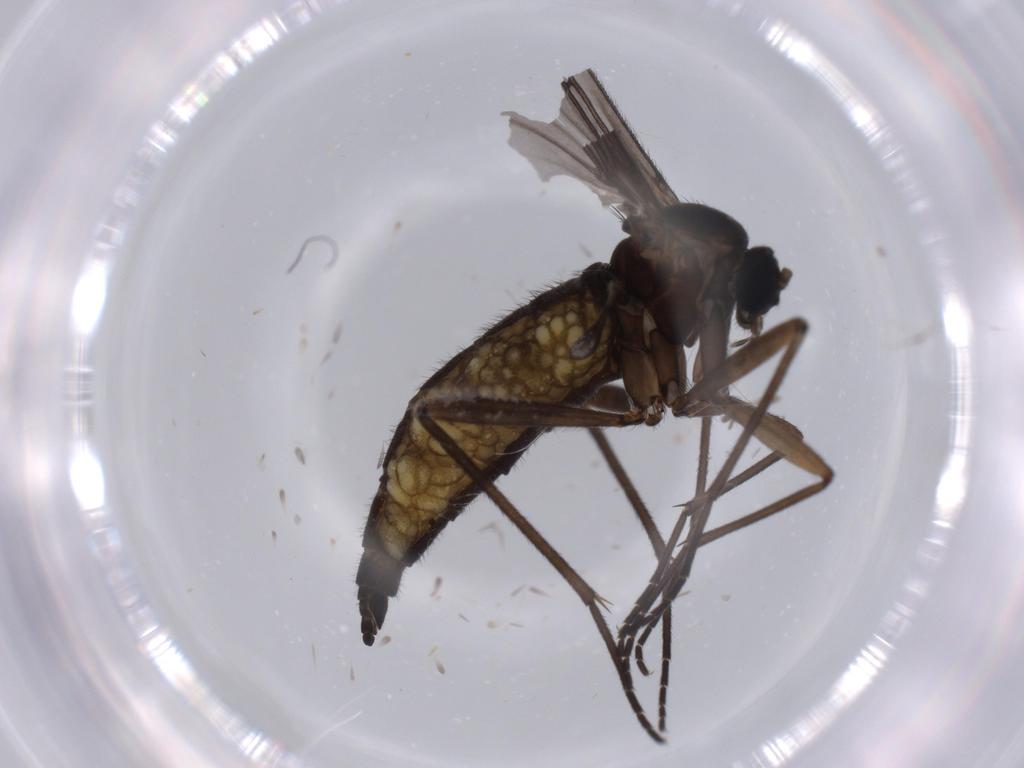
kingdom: Animalia
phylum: Arthropoda
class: Insecta
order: Diptera
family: Sciaridae
